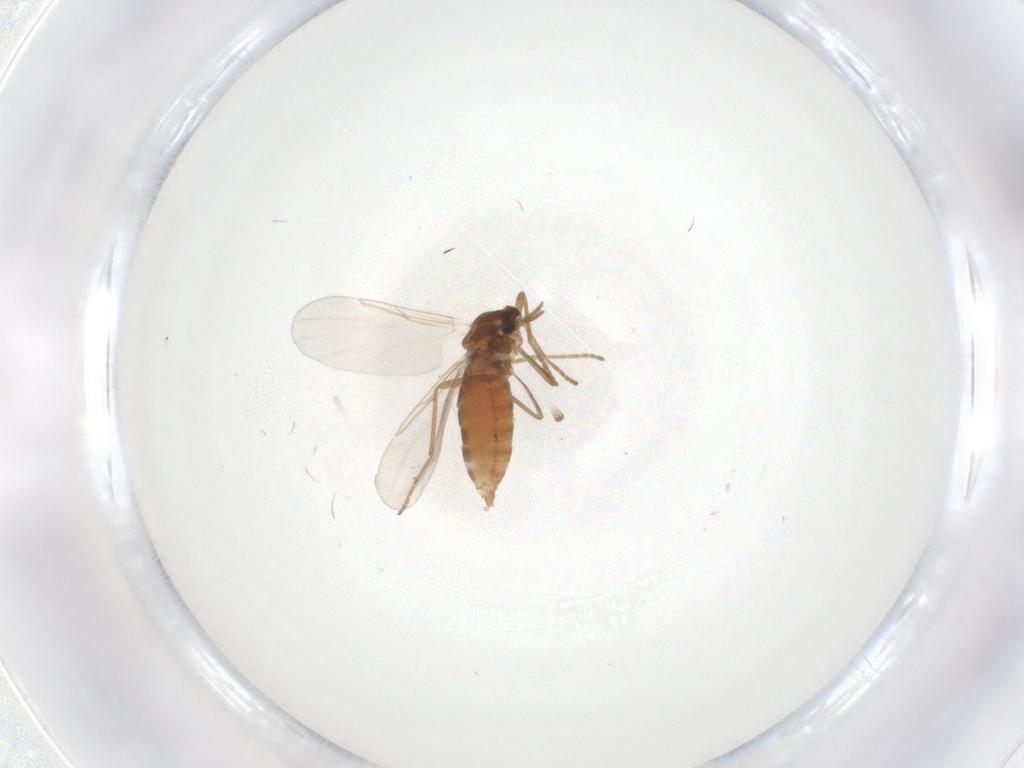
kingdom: Animalia
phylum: Arthropoda
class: Insecta
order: Diptera
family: Cecidomyiidae
